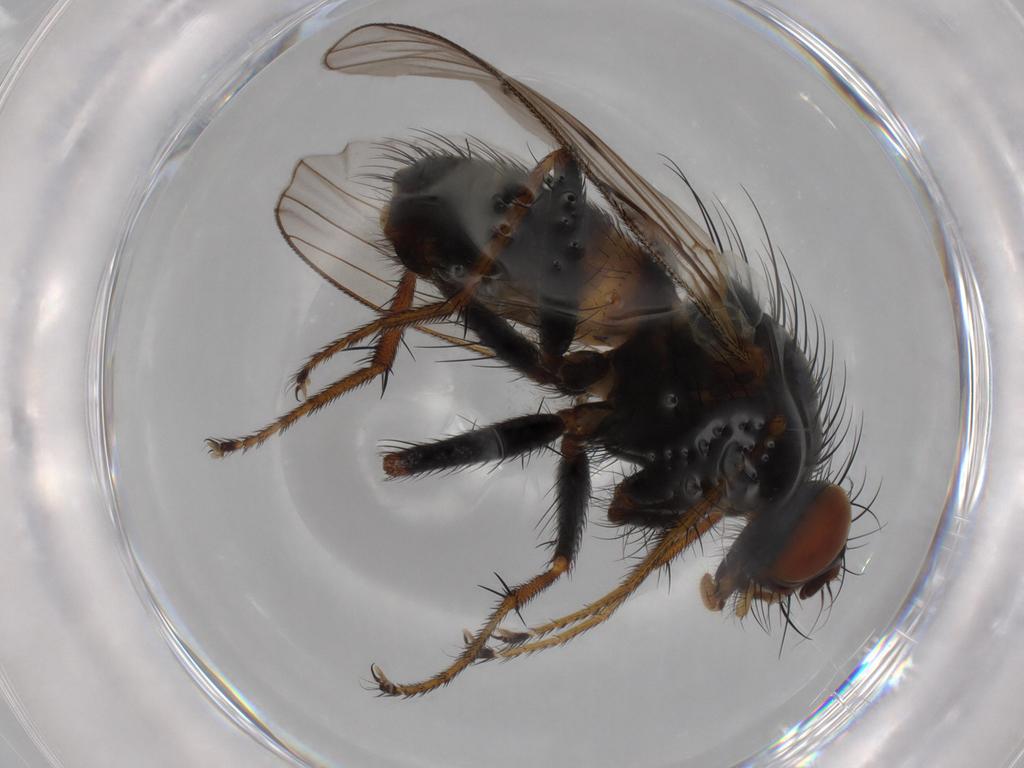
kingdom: Animalia
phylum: Arthropoda
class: Insecta
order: Diptera
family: Muscidae
